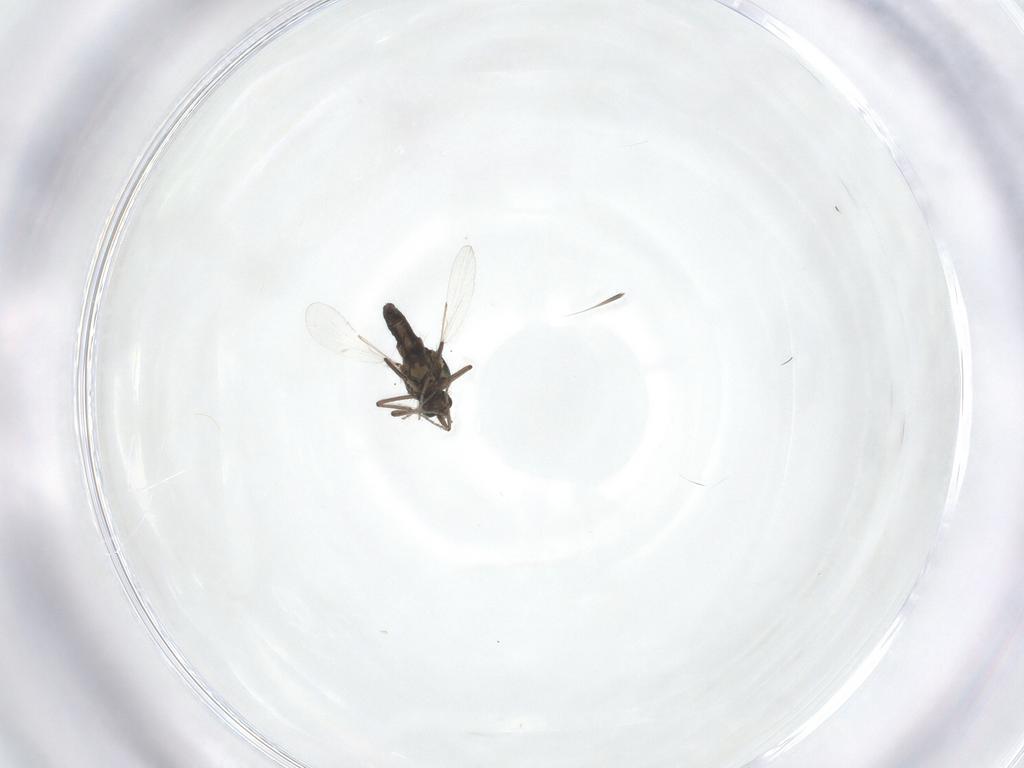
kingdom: Animalia
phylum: Arthropoda
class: Insecta
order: Diptera
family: Ceratopogonidae
